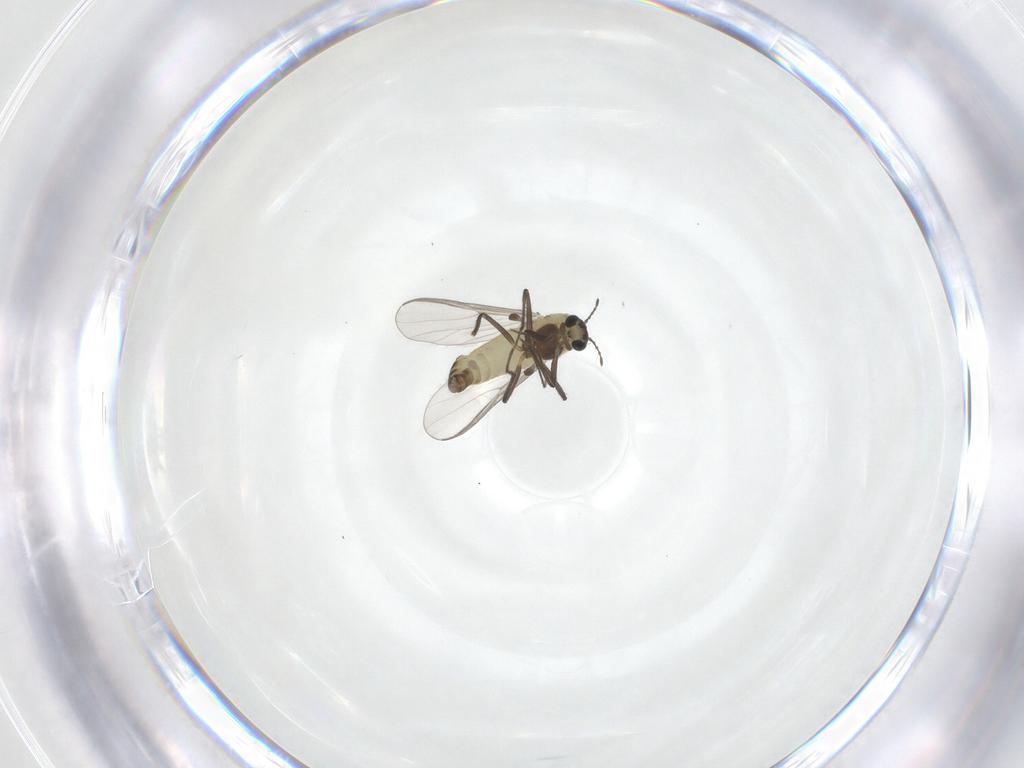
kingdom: Animalia
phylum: Arthropoda
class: Insecta
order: Diptera
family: Chironomidae
